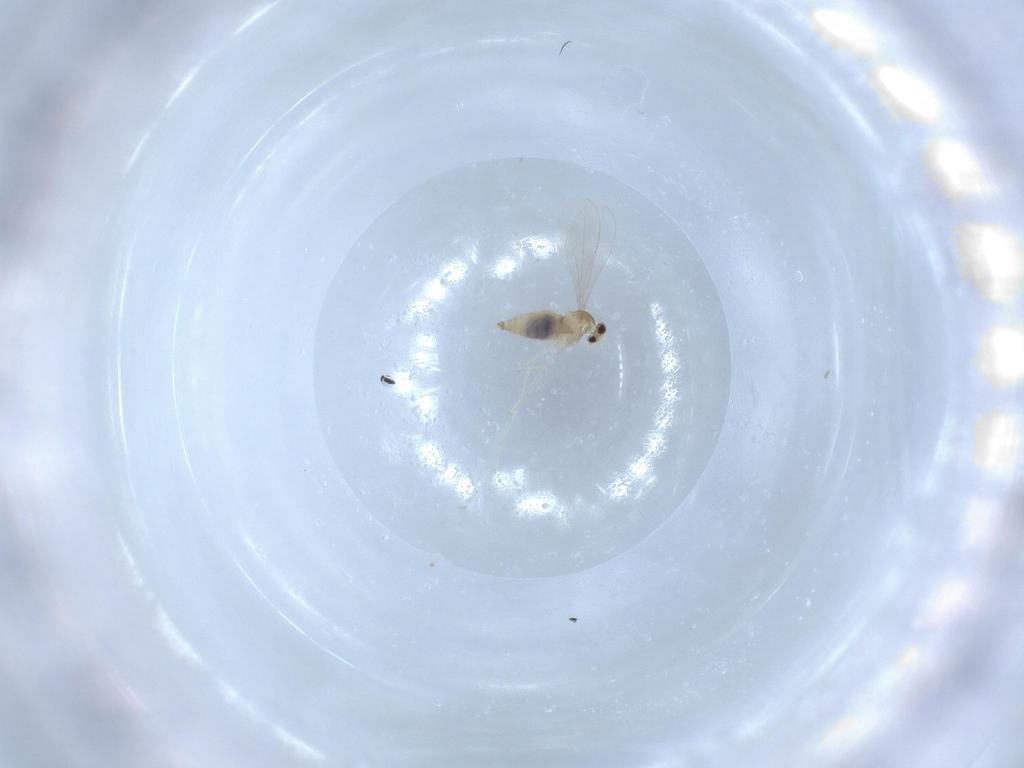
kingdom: Animalia
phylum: Arthropoda
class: Insecta
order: Diptera
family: Cecidomyiidae
